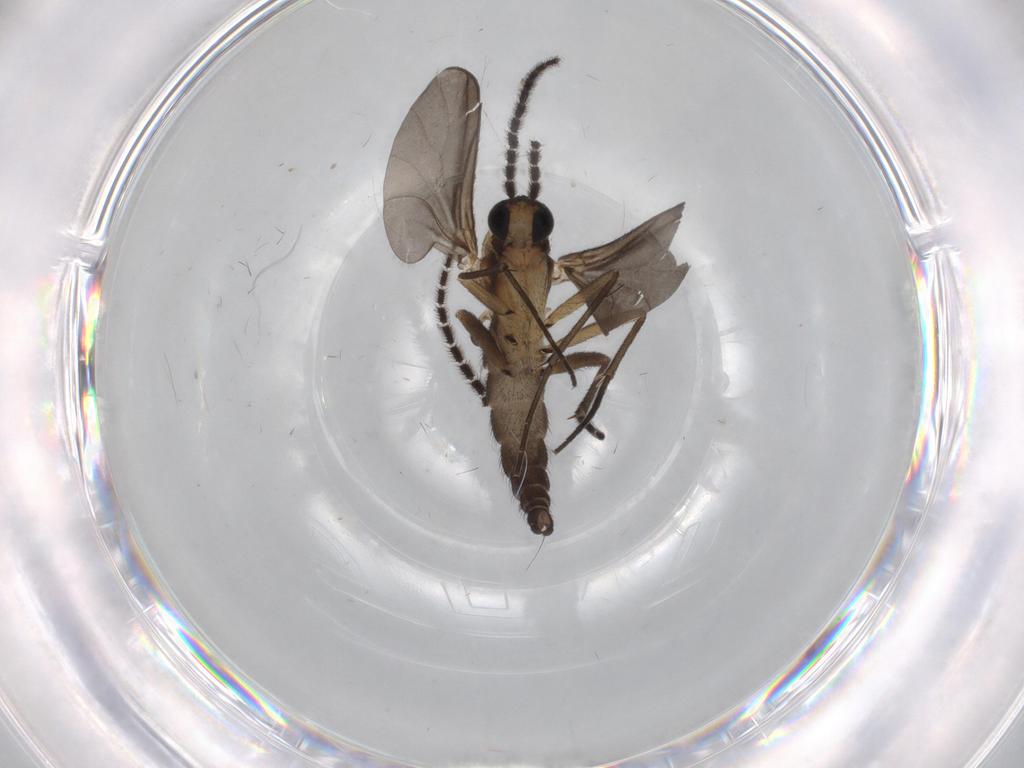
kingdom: Animalia
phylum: Arthropoda
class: Insecta
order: Diptera
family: Sciaridae
